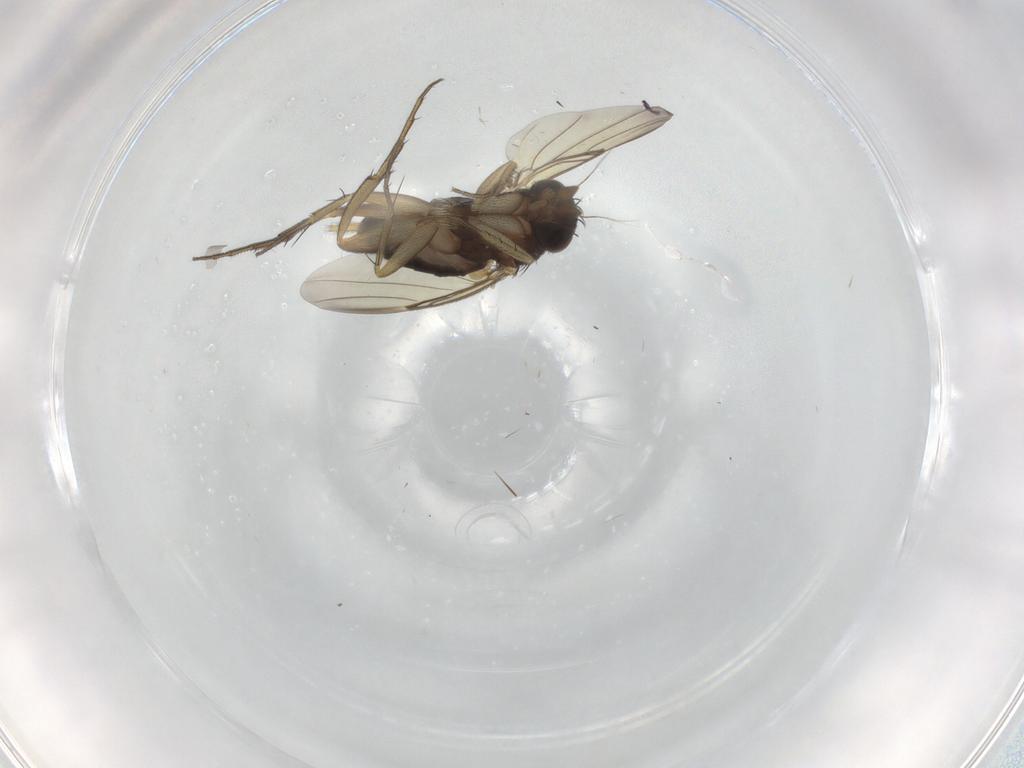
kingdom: Animalia
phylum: Arthropoda
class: Insecta
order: Diptera
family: Phoridae
